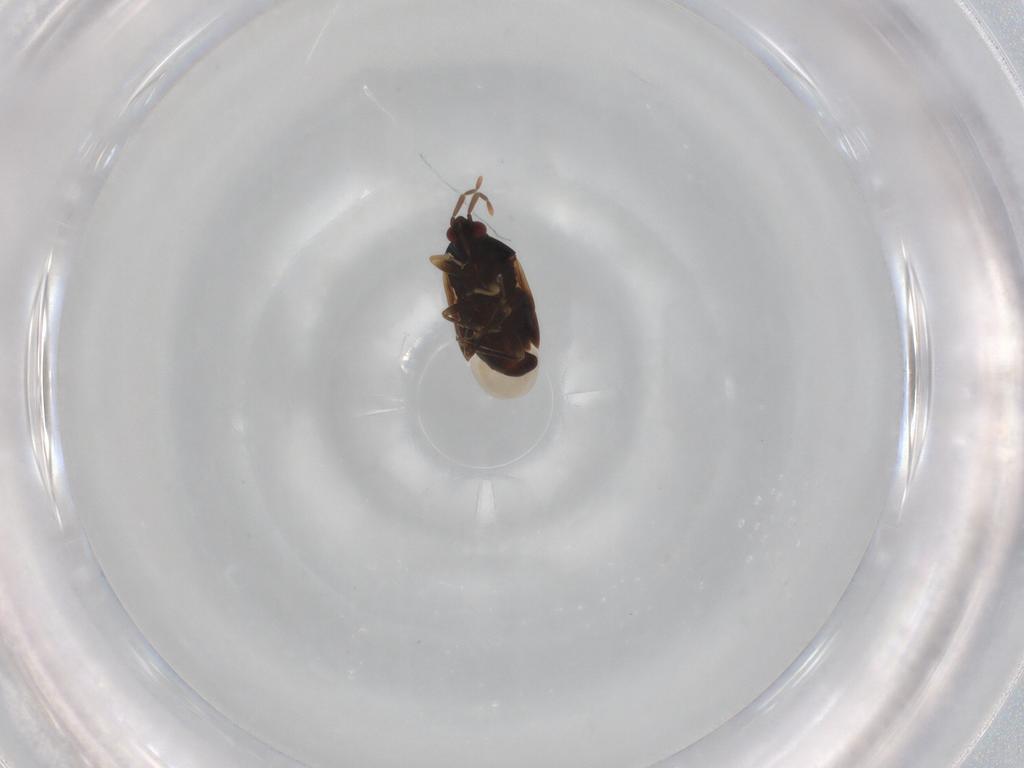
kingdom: Animalia
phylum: Arthropoda
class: Insecta
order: Hemiptera
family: Anthocoridae
